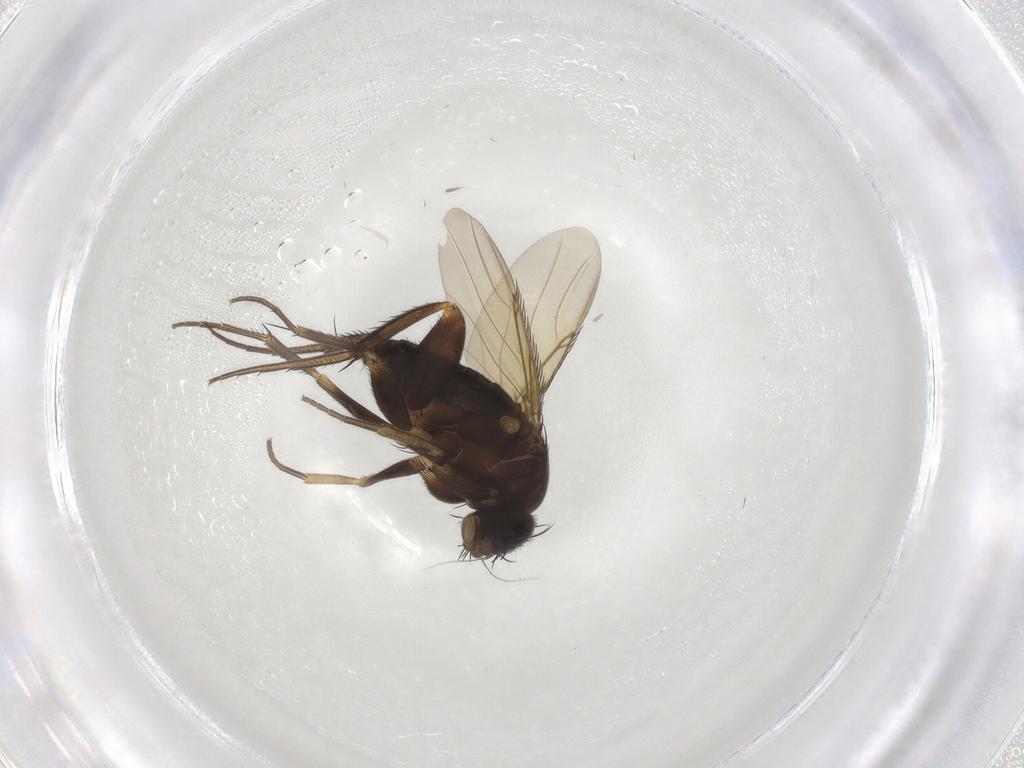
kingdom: Animalia
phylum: Arthropoda
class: Insecta
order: Diptera
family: Phoridae
